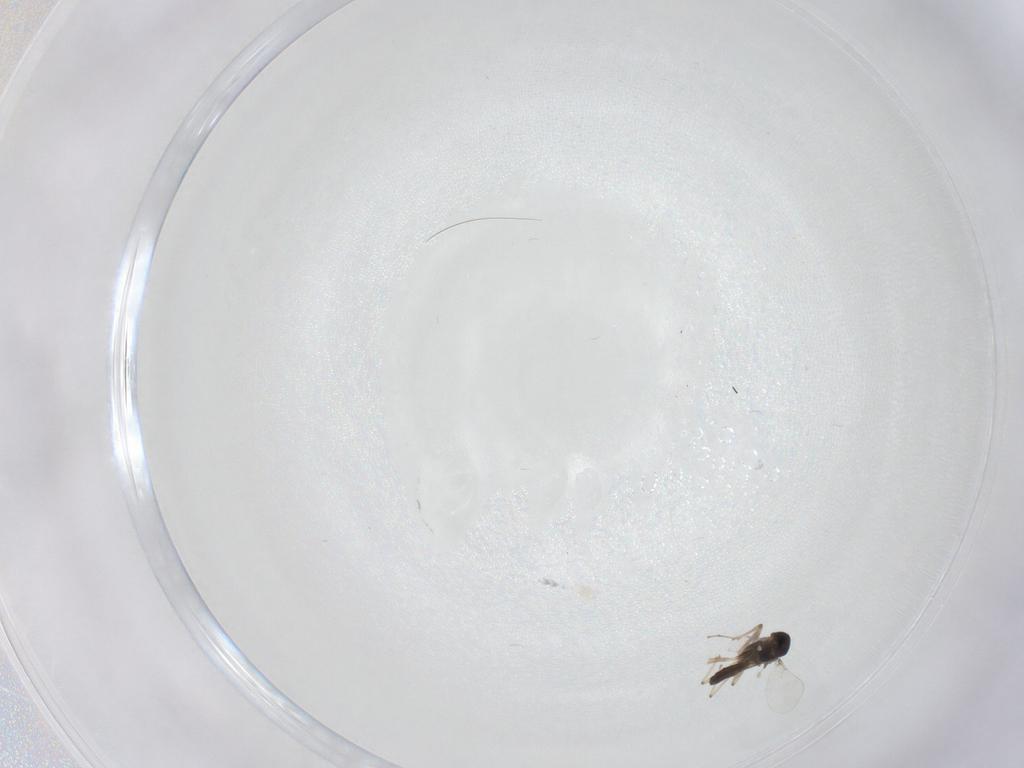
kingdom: Animalia
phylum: Arthropoda
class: Insecta
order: Diptera
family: Chironomidae
